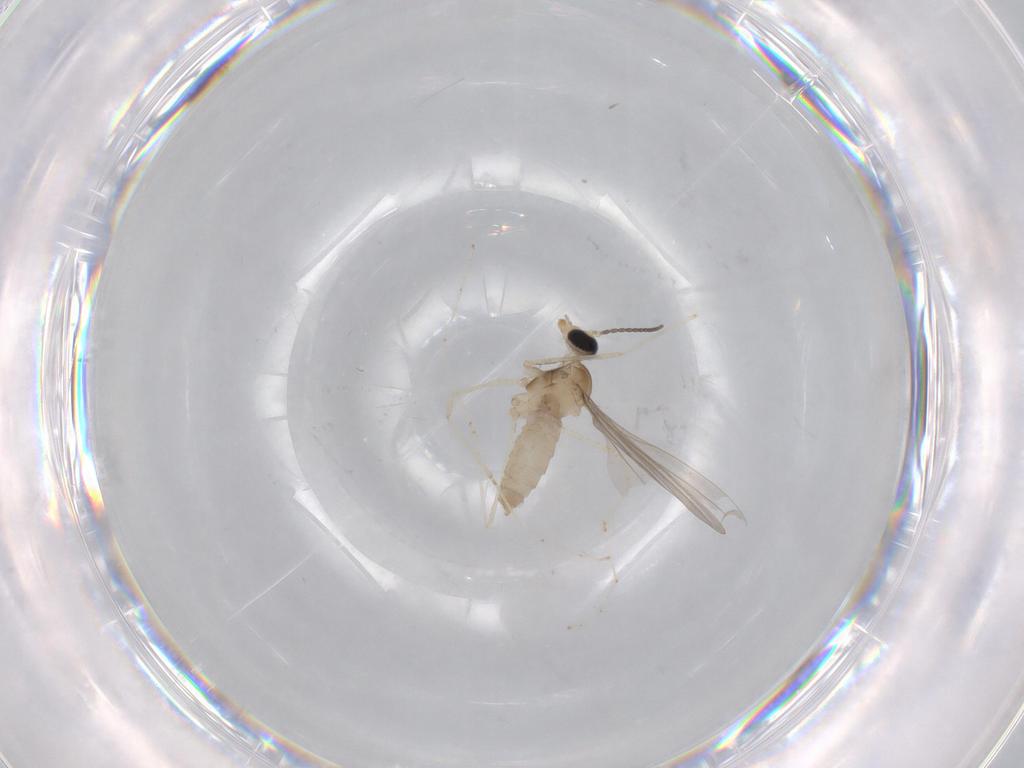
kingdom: Animalia
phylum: Arthropoda
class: Insecta
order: Diptera
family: Cecidomyiidae
